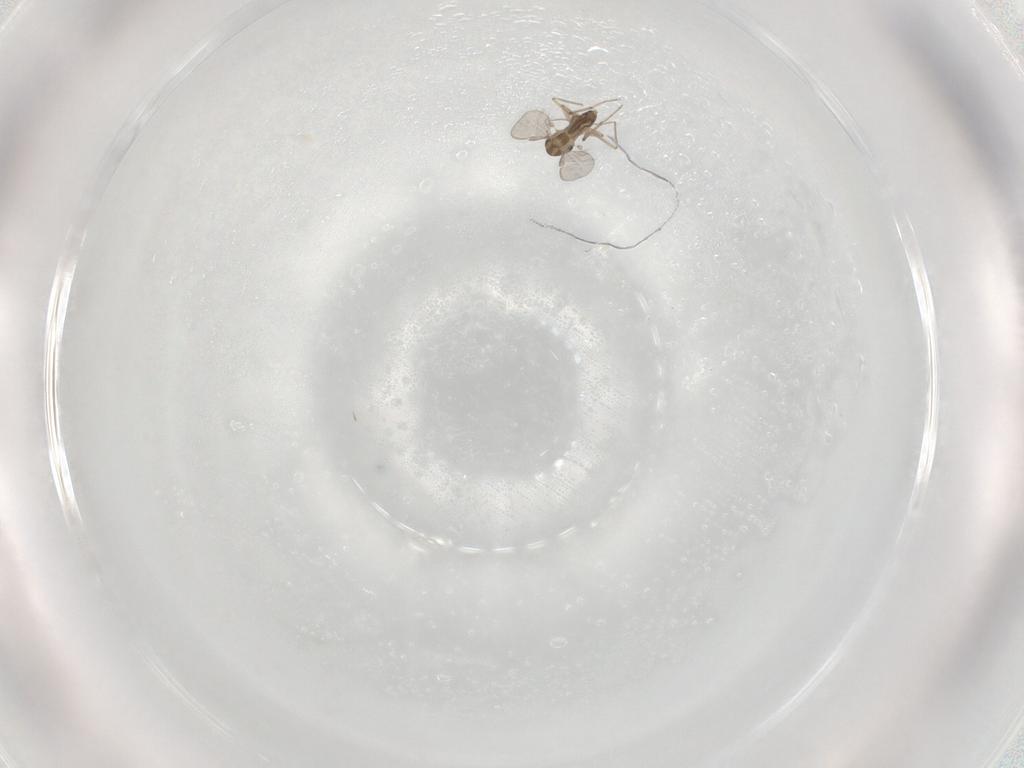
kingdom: Animalia
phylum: Arthropoda
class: Insecta
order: Diptera
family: Chironomidae
